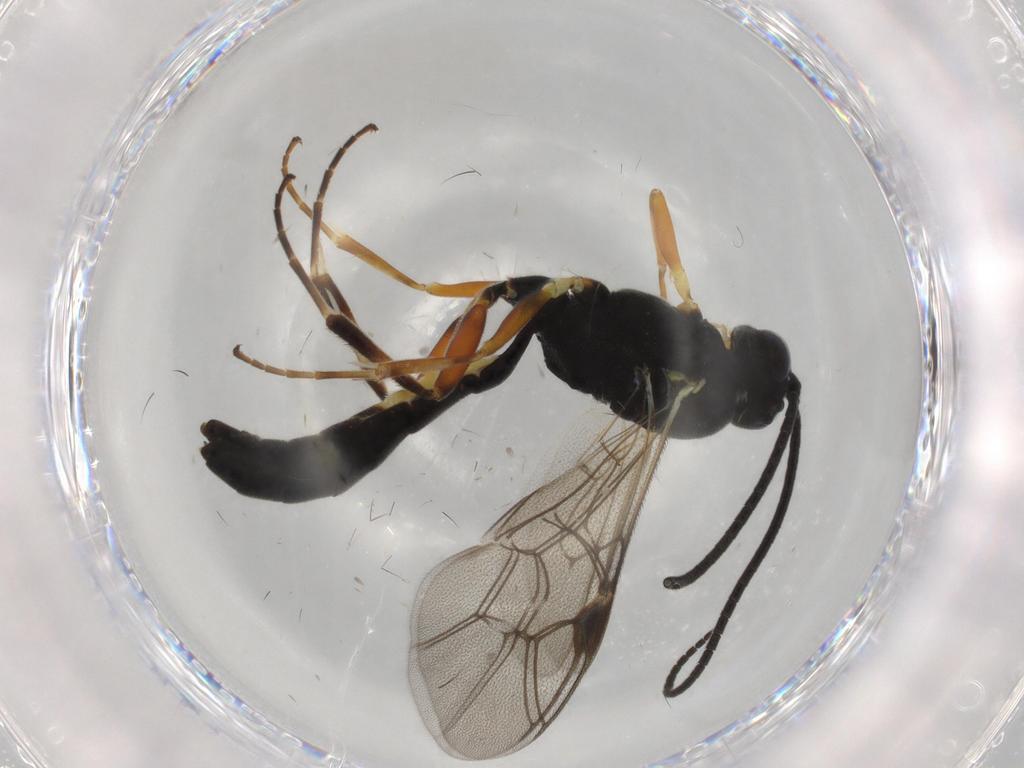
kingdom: Animalia
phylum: Arthropoda
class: Insecta
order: Hymenoptera
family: Ichneumonidae
